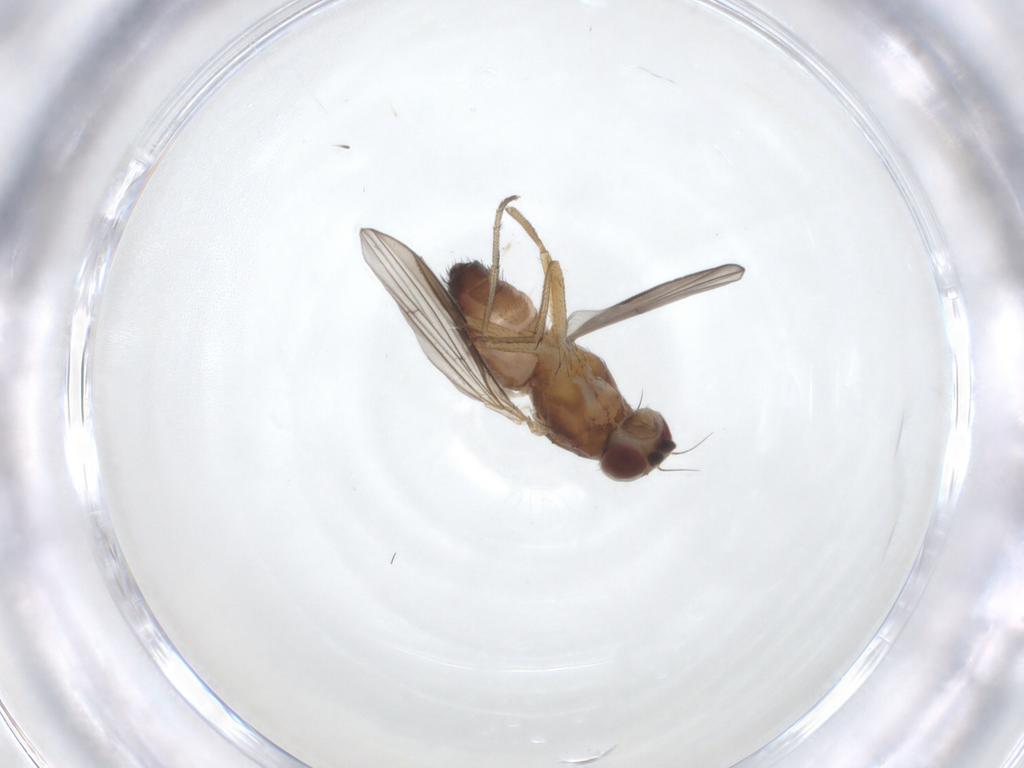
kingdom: Animalia
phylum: Arthropoda
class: Insecta
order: Diptera
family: Heleomyzidae
